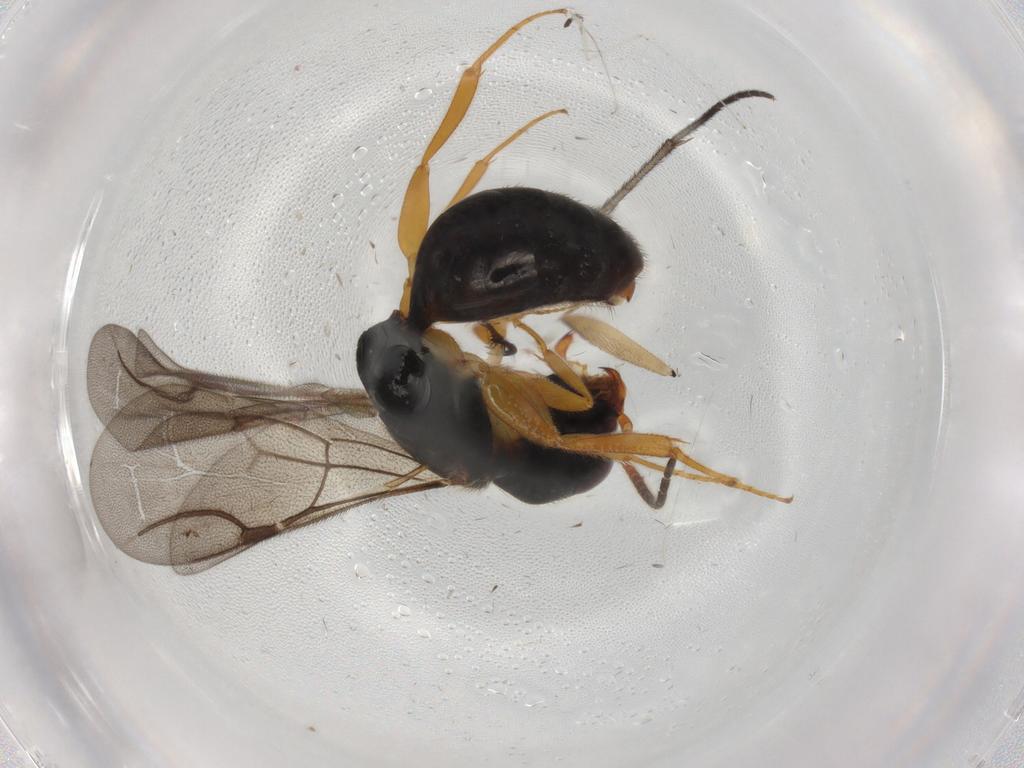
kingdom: Animalia
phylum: Arthropoda
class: Insecta
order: Hymenoptera
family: Bethylidae
